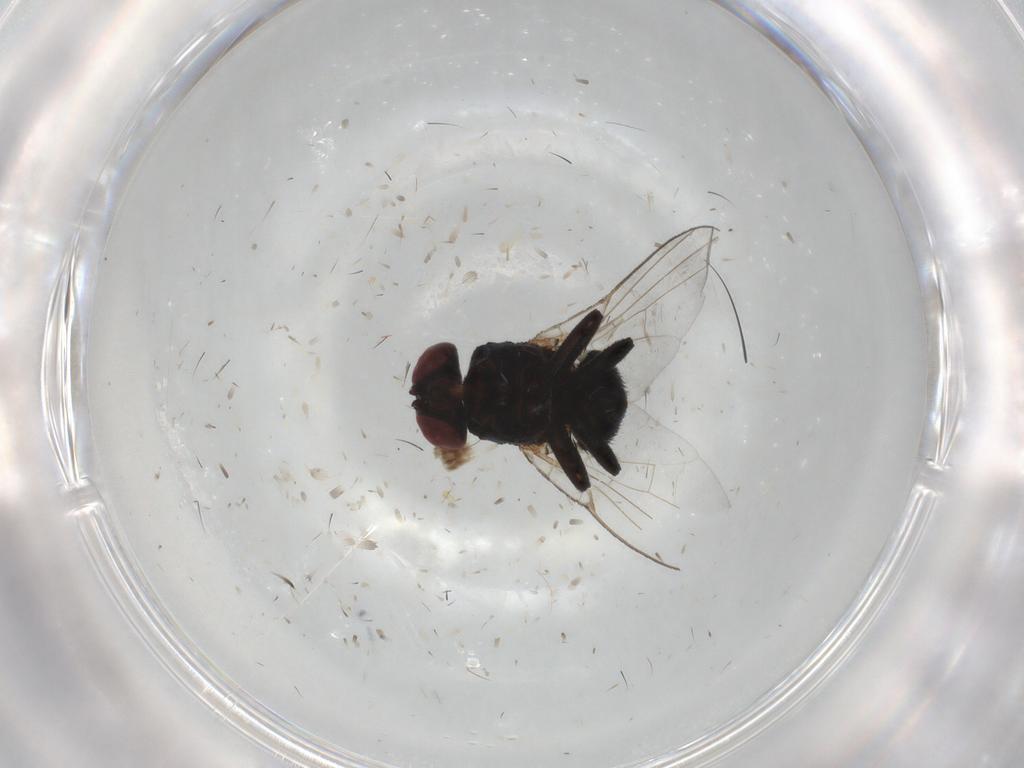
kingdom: Animalia
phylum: Arthropoda
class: Insecta
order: Diptera
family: Agromyzidae
